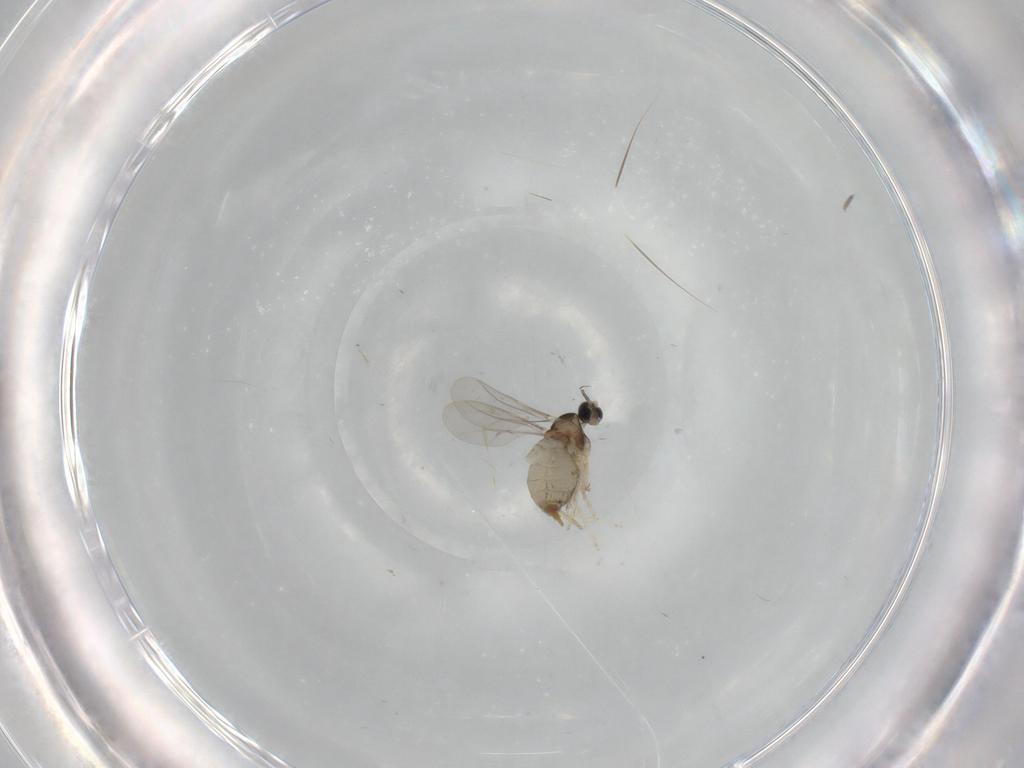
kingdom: Animalia
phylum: Arthropoda
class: Insecta
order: Diptera
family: Cecidomyiidae
